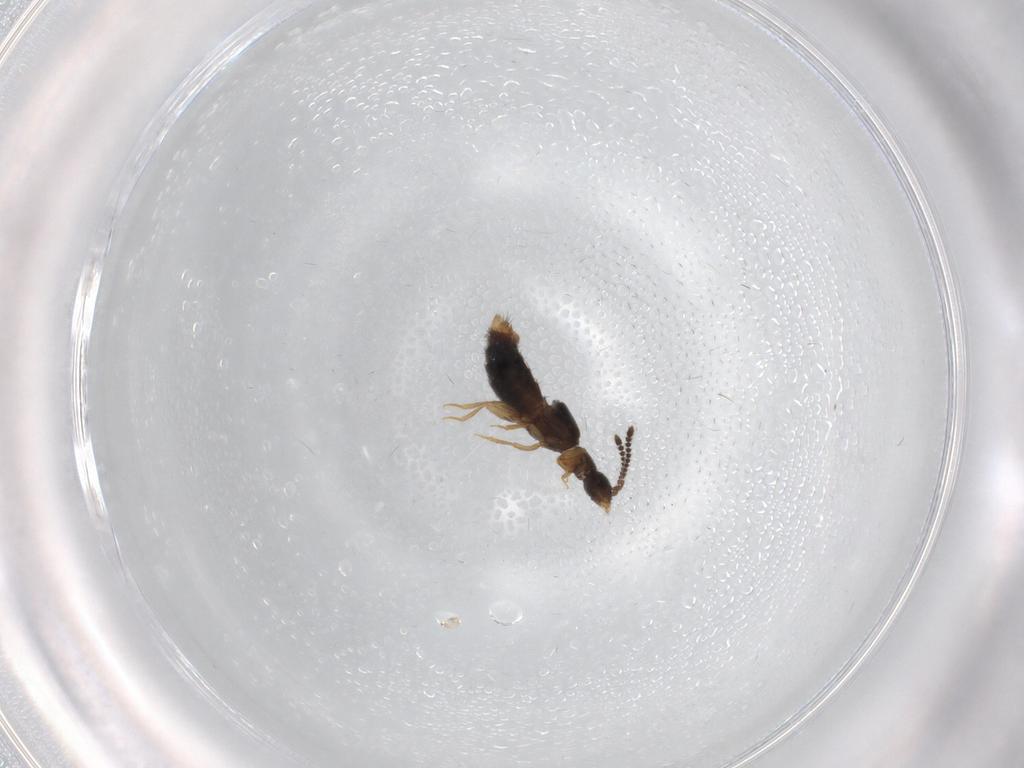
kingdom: Animalia
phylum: Arthropoda
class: Insecta
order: Coleoptera
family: Staphylinidae
